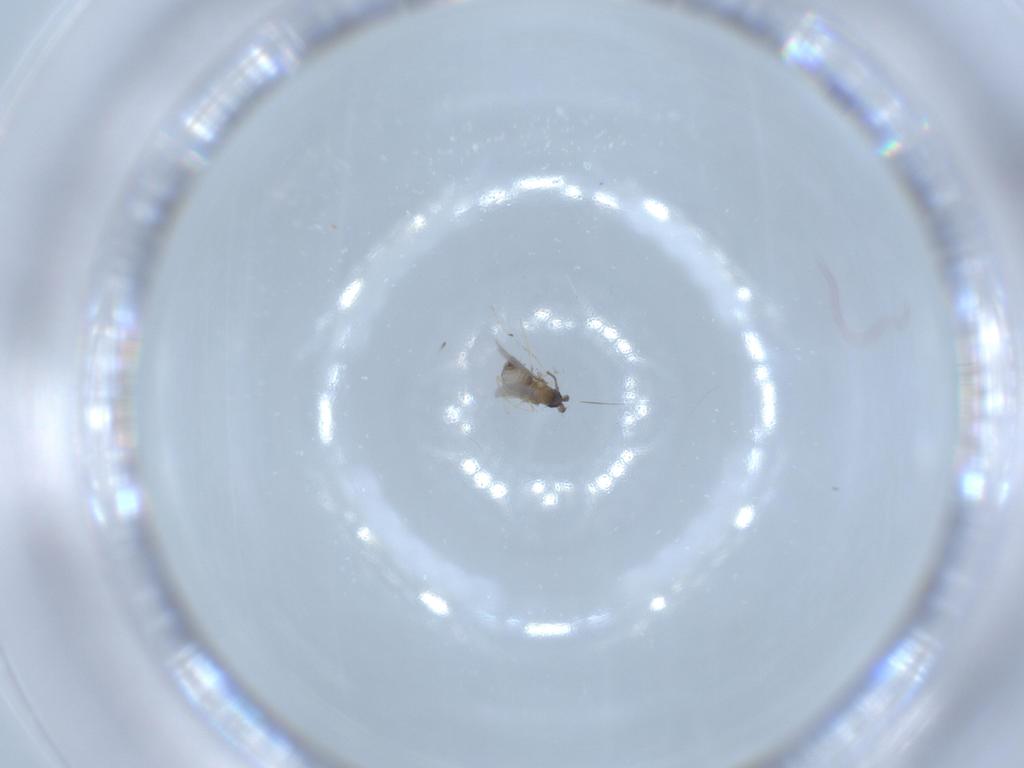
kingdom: Animalia
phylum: Arthropoda
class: Insecta
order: Diptera
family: Cecidomyiidae
